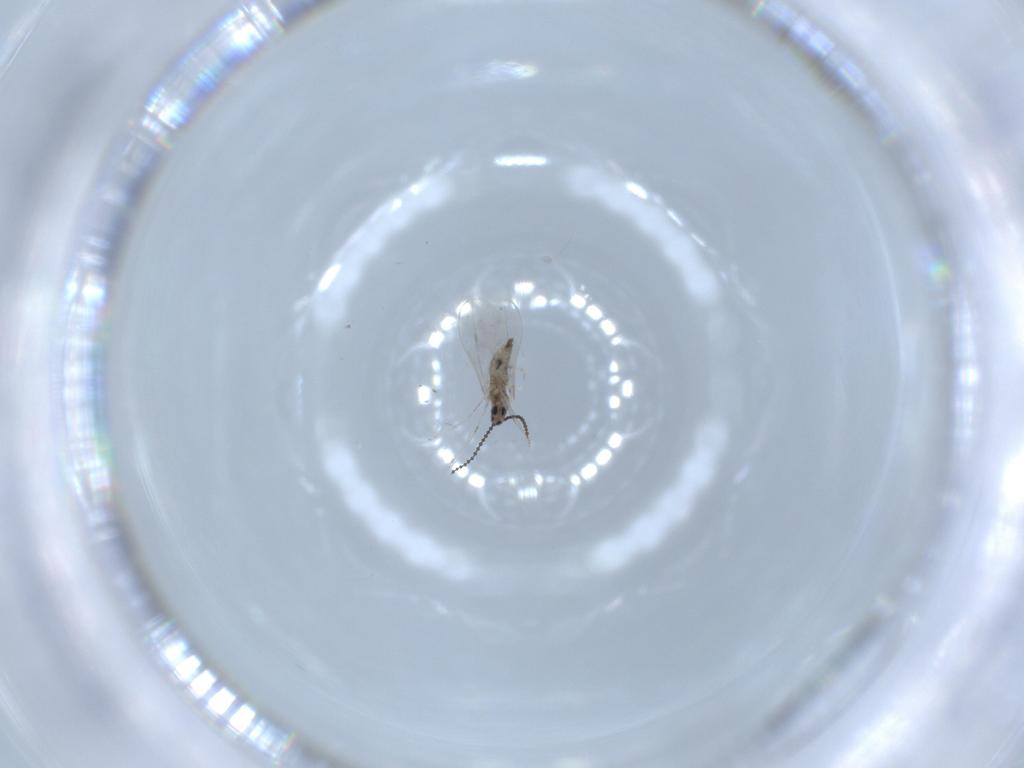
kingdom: Animalia
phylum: Arthropoda
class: Insecta
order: Diptera
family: Cecidomyiidae
